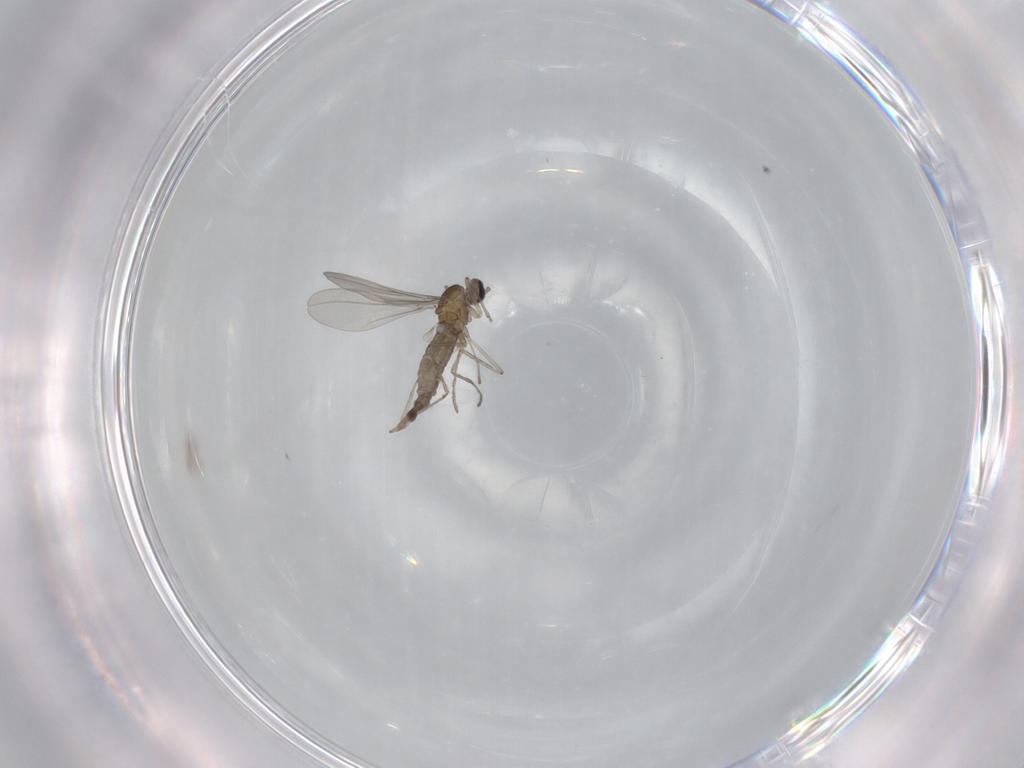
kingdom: Animalia
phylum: Arthropoda
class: Insecta
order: Diptera
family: Cecidomyiidae
